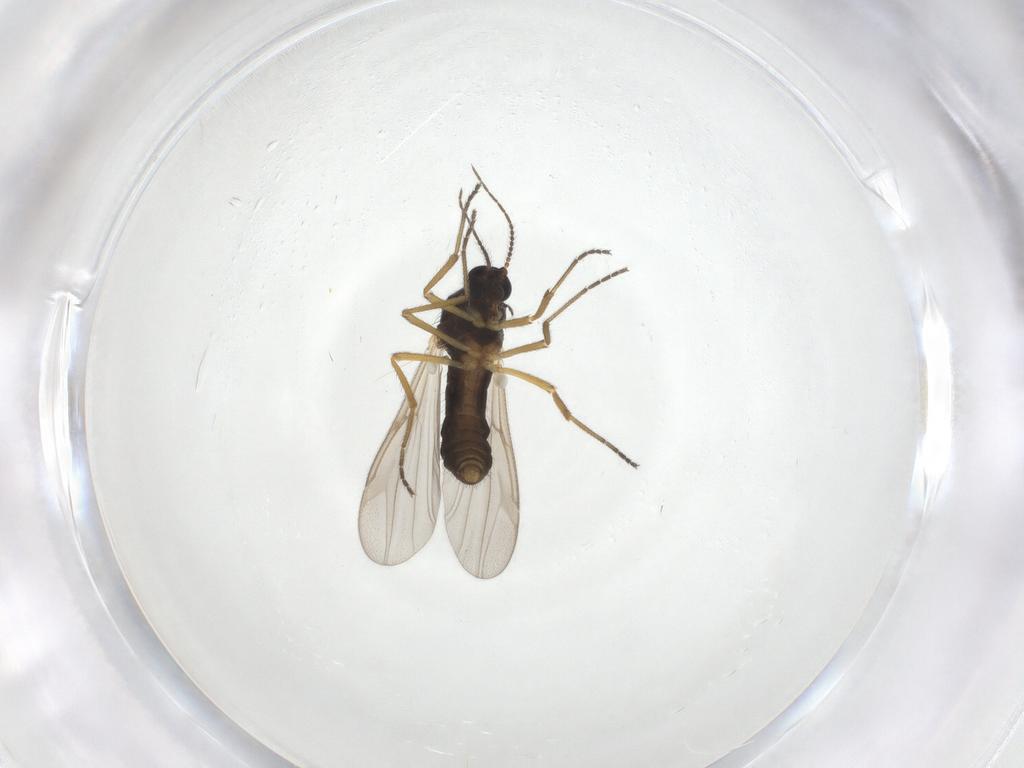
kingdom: Animalia
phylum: Arthropoda
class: Insecta
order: Diptera
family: Ceratopogonidae
